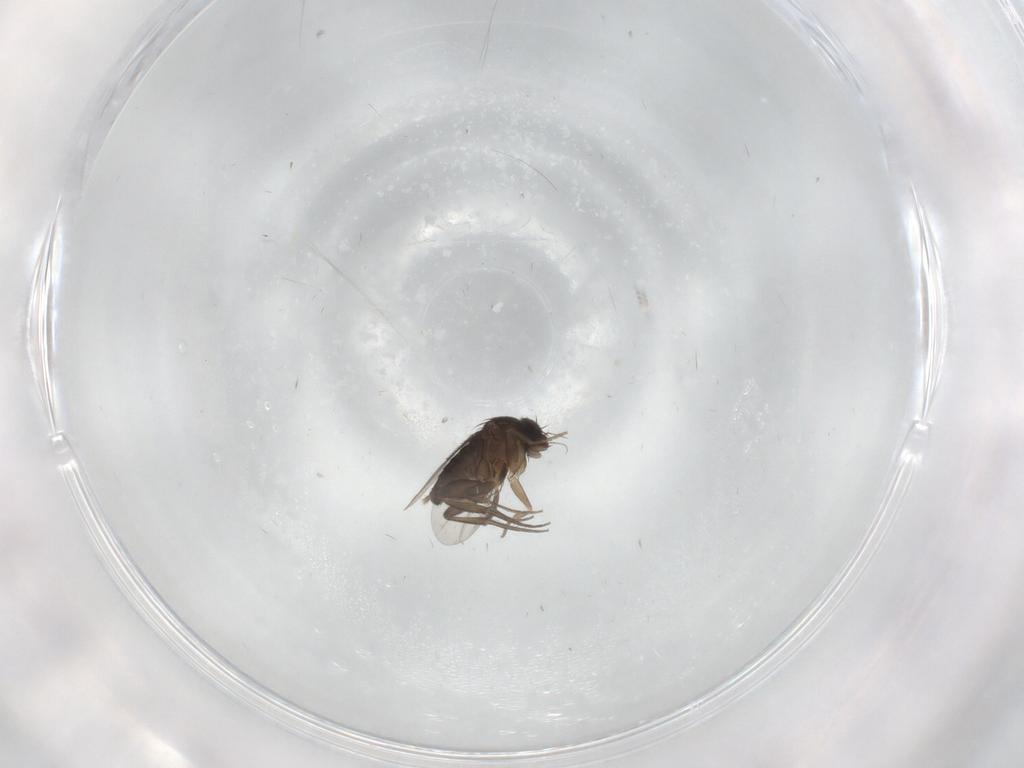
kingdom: Animalia
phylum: Arthropoda
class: Insecta
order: Diptera
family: Phoridae
